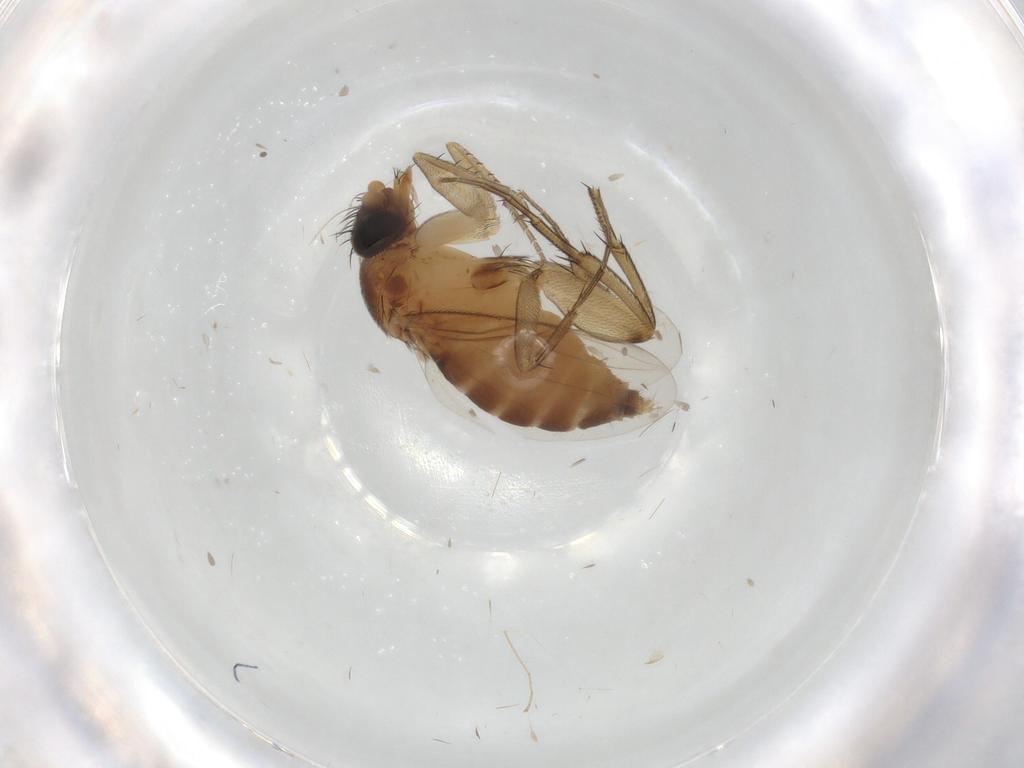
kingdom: Animalia
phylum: Arthropoda
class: Insecta
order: Diptera
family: Phoridae
